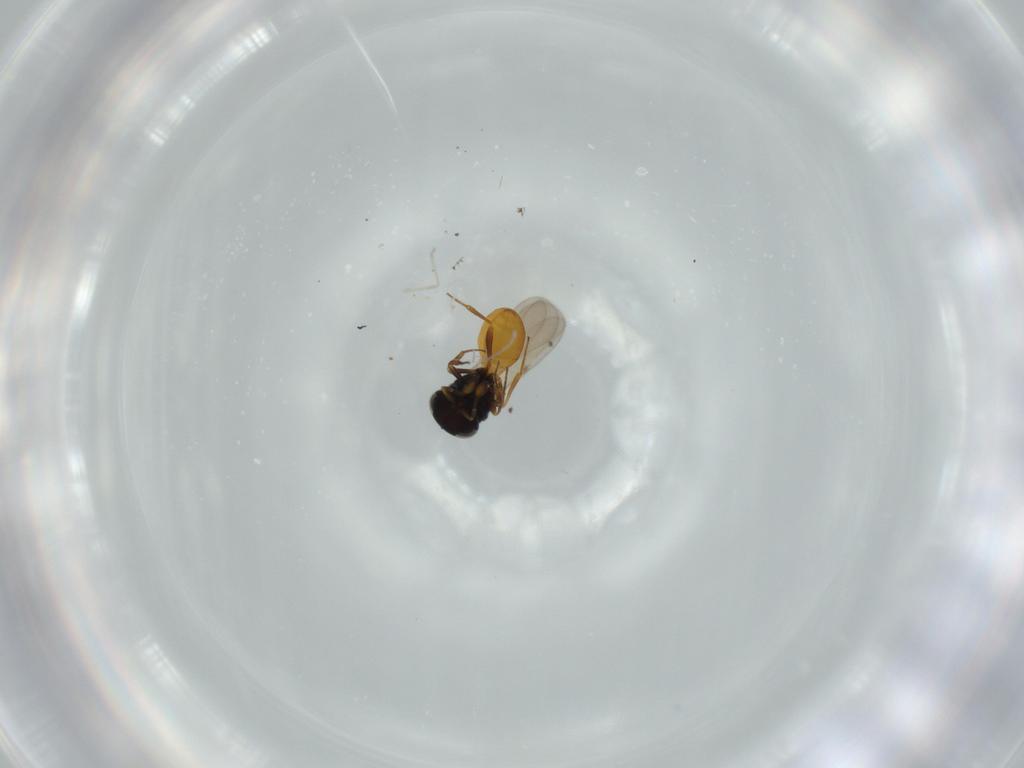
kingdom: Animalia
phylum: Arthropoda
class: Insecta
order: Hymenoptera
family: Scelionidae
